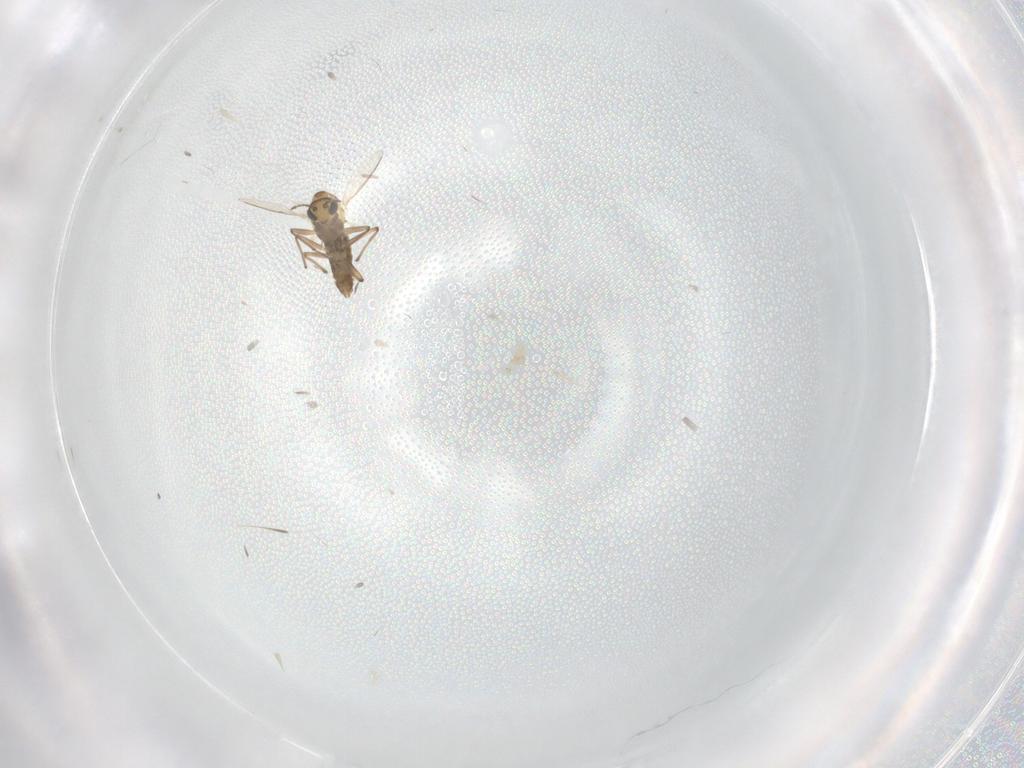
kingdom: Animalia
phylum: Arthropoda
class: Insecta
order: Diptera
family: Chironomidae
